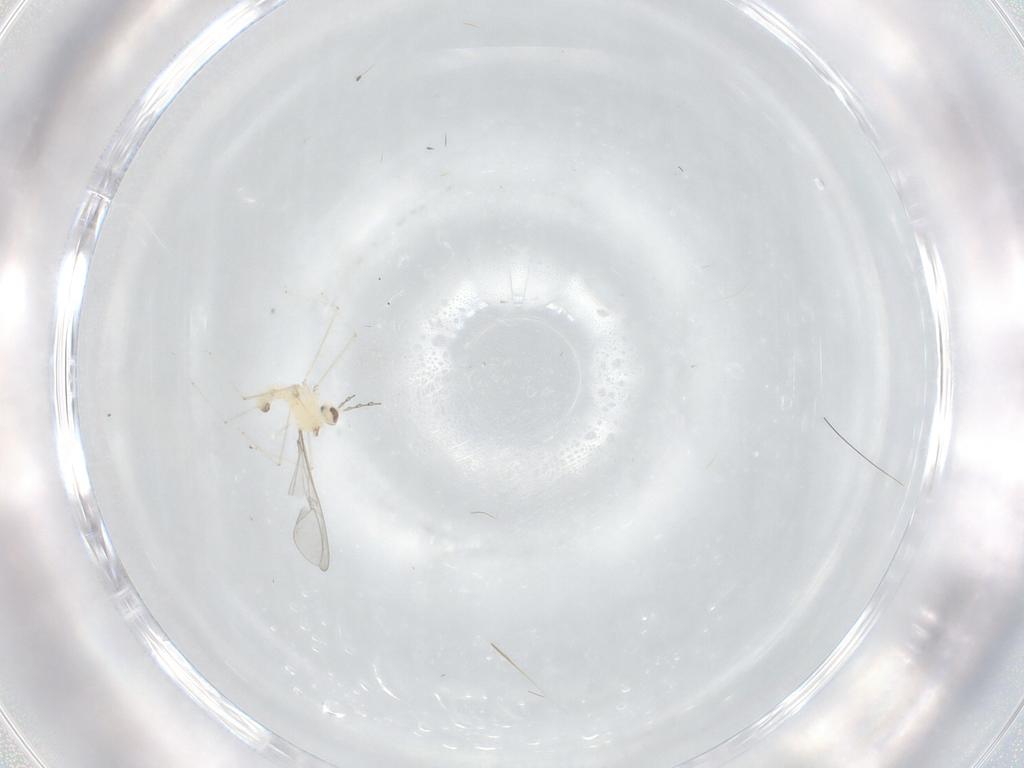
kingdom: Animalia
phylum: Arthropoda
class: Insecta
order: Diptera
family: Cecidomyiidae
